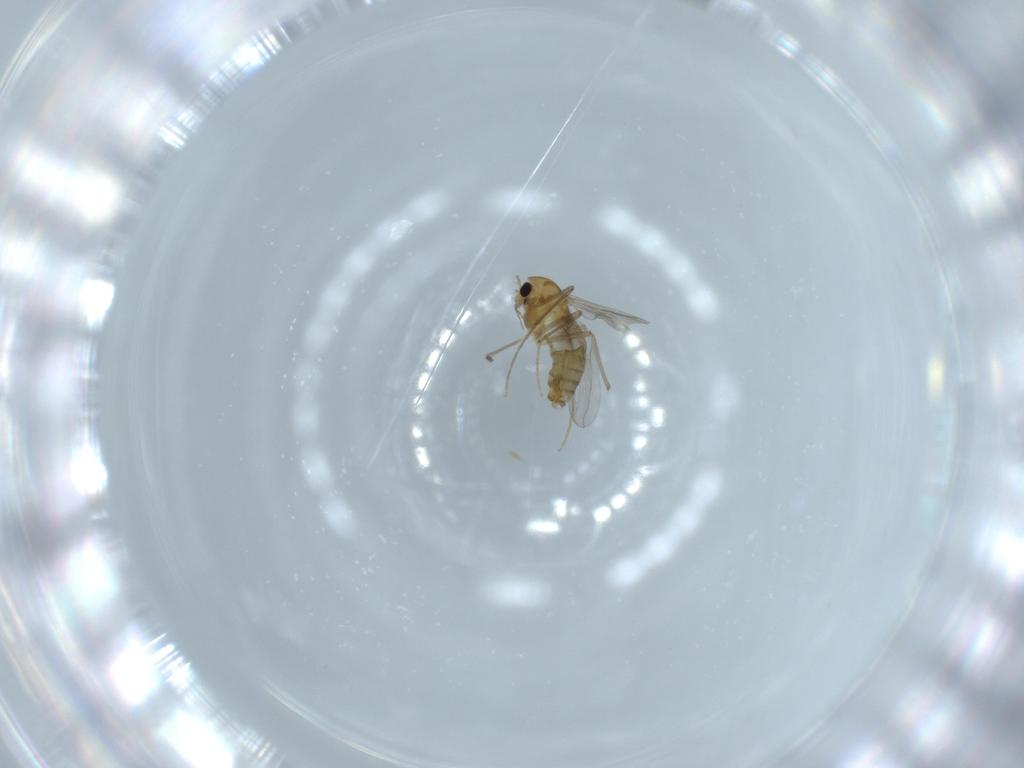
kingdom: Animalia
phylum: Arthropoda
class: Insecta
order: Diptera
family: Chironomidae
